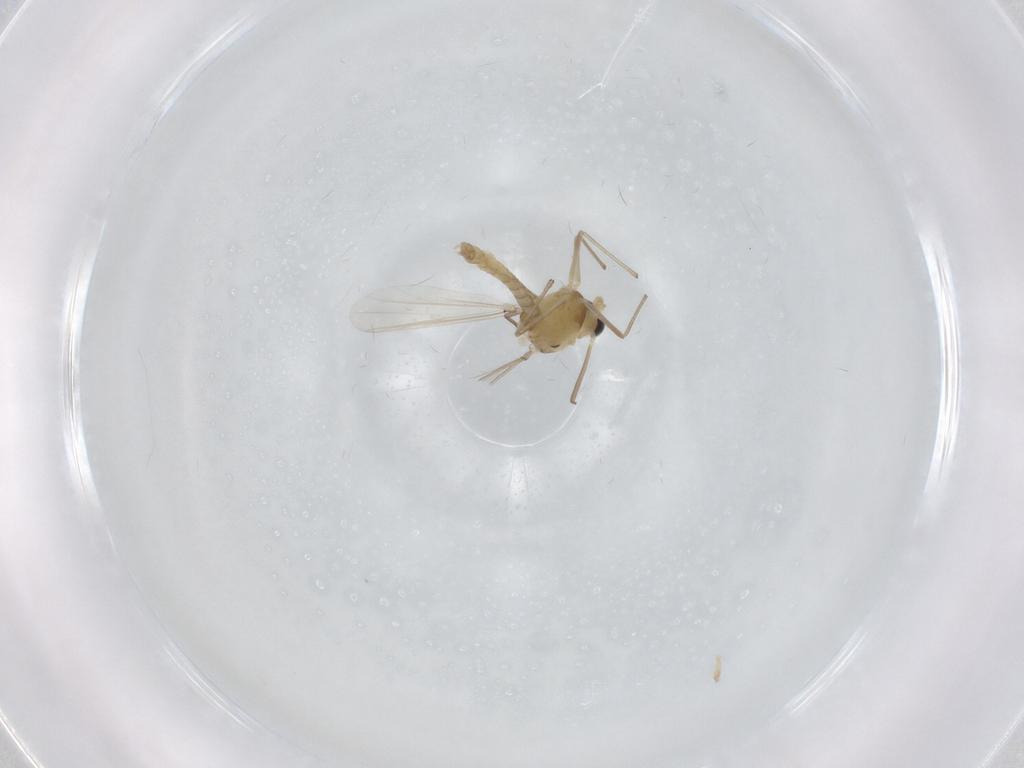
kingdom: Animalia
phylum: Arthropoda
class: Insecta
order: Diptera
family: Chironomidae
